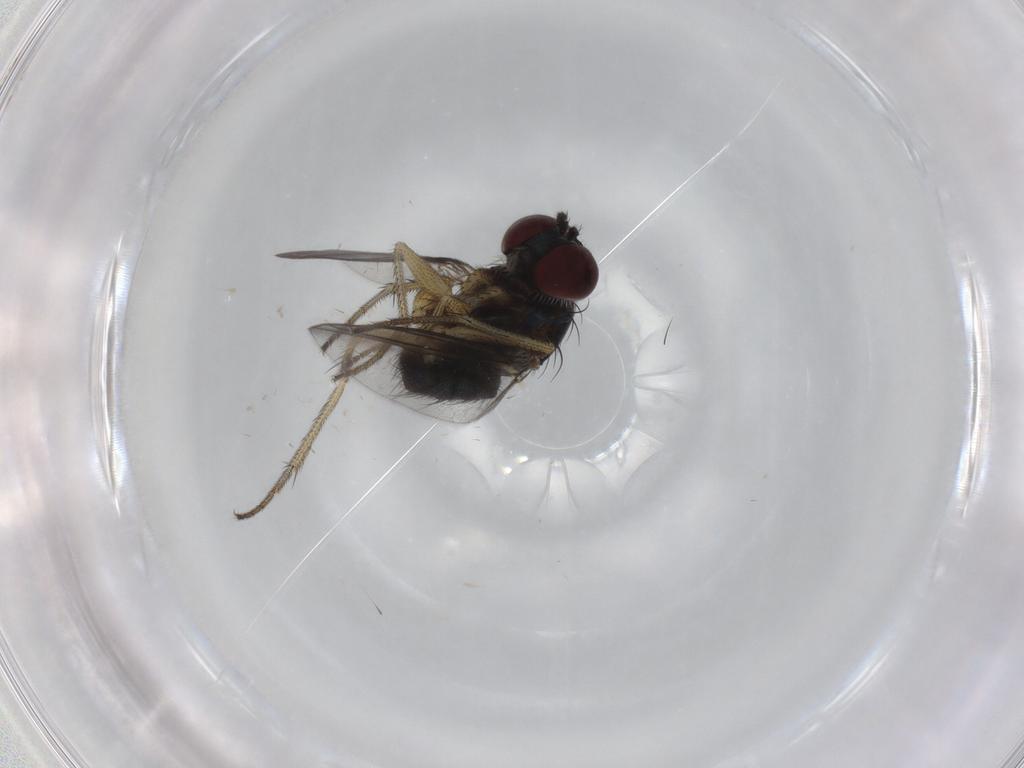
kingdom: Animalia
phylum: Arthropoda
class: Insecta
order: Diptera
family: Dolichopodidae
